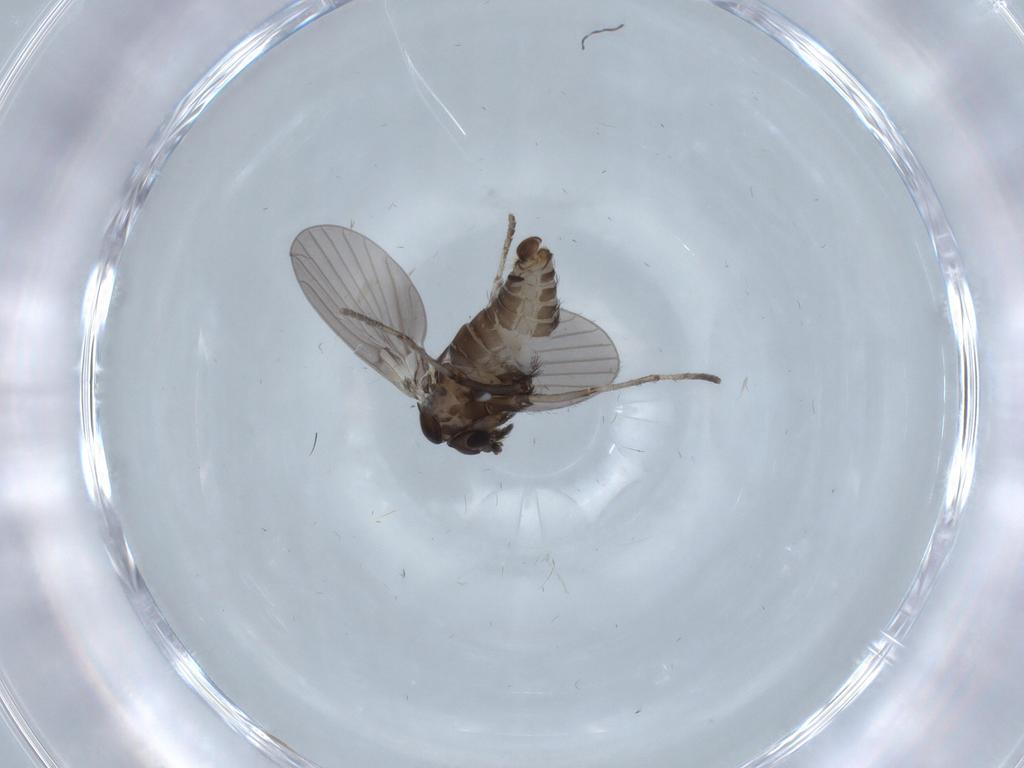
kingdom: Animalia
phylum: Arthropoda
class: Insecta
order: Diptera
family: Psychodidae
